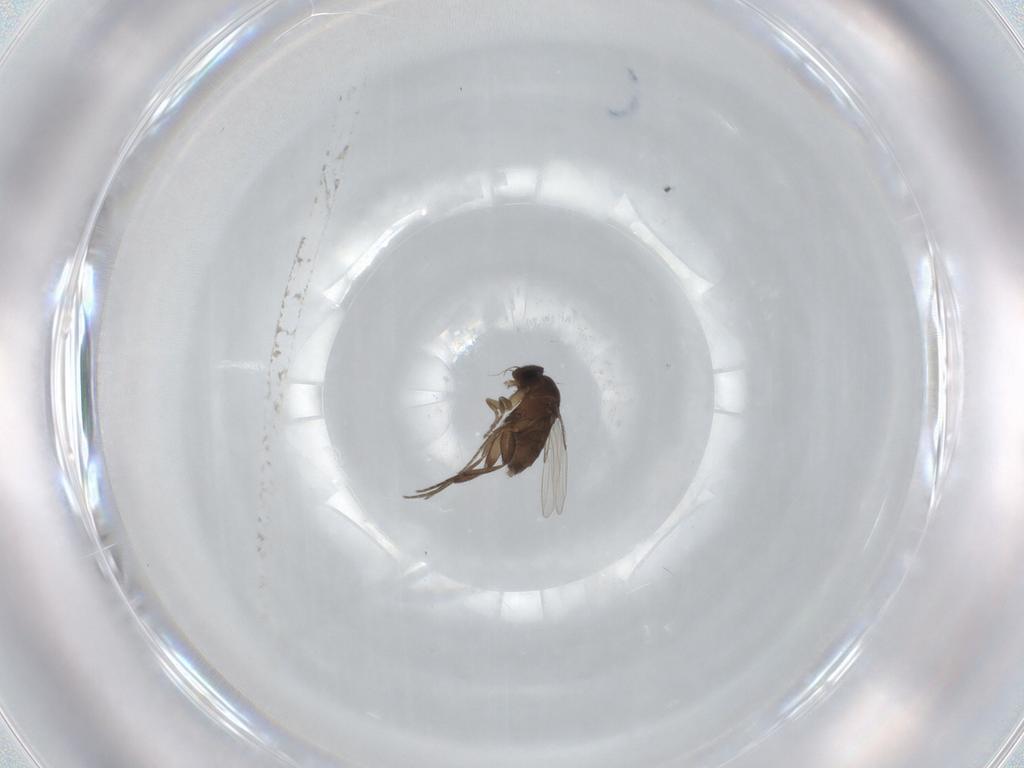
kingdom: Animalia
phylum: Arthropoda
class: Insecta
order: Diptera
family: Phoridae
